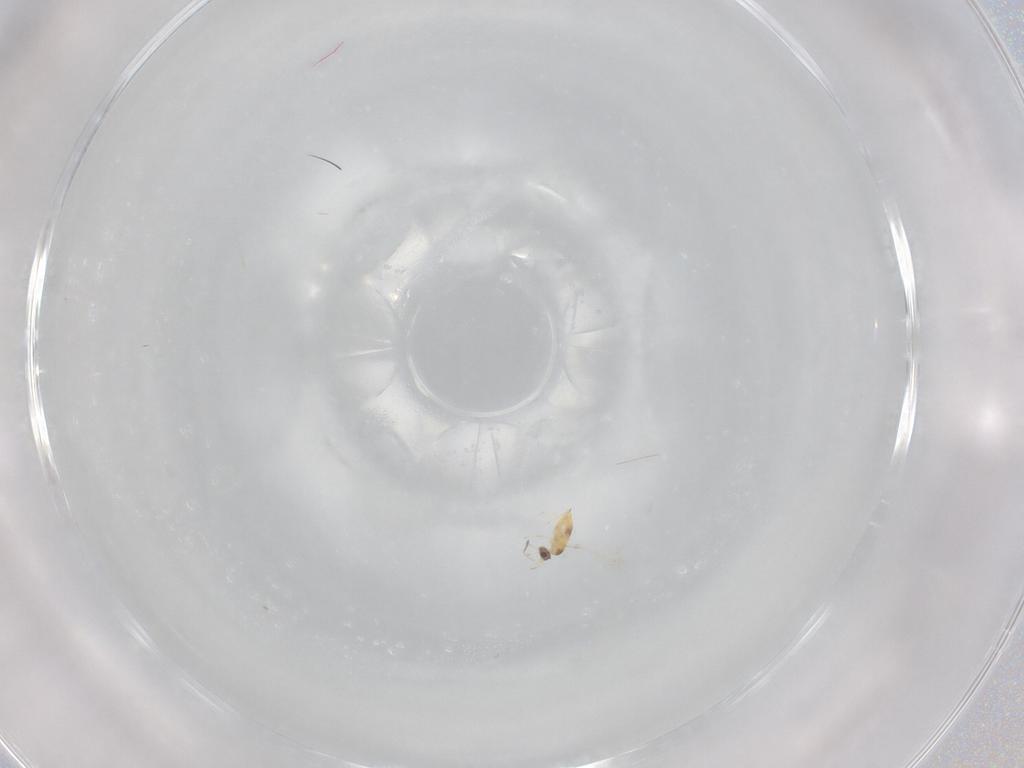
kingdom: Animalia
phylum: Arthropoda
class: Insecta
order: Hymenoptera
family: Mymaridae
